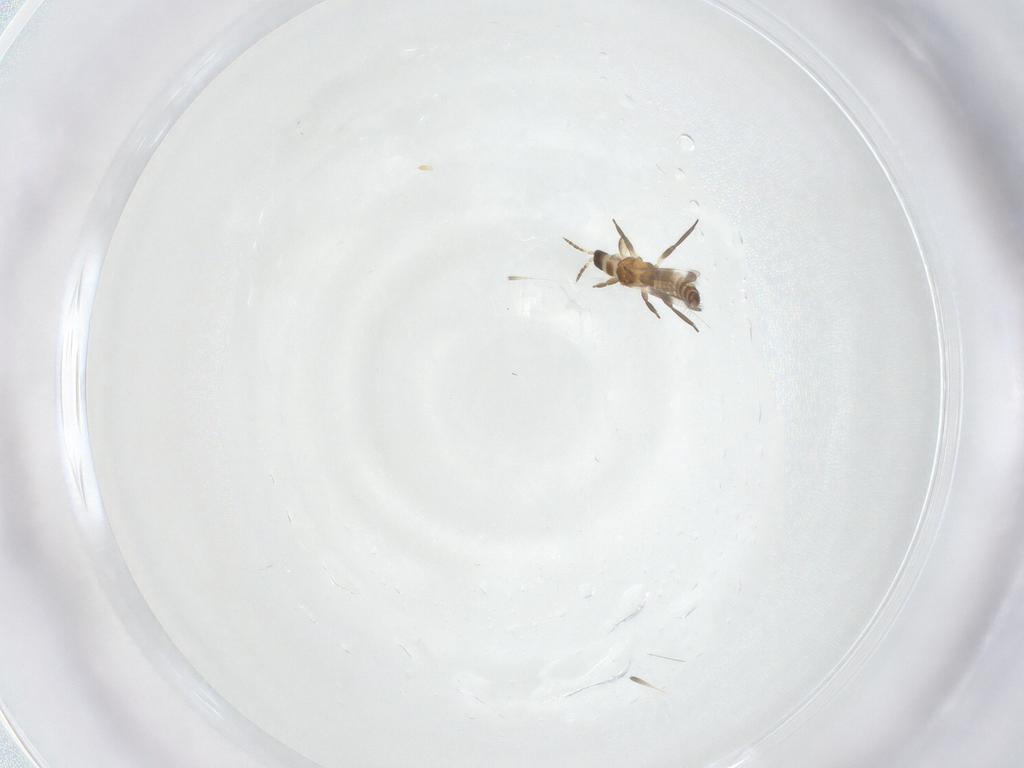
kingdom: Animalia
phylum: Arthropoda
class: Insecta
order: Thysanoptera
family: Aeolothripidae
